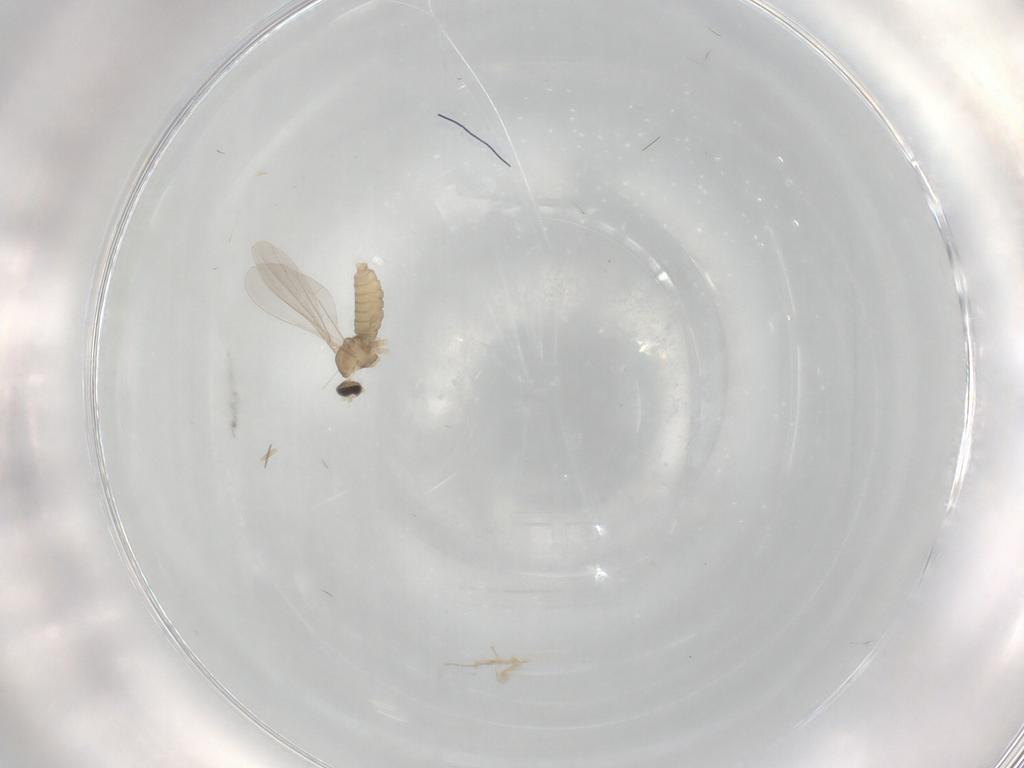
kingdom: Animalia
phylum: Arthropoda
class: Insecta
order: Diptera
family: Cecidomyiidae
